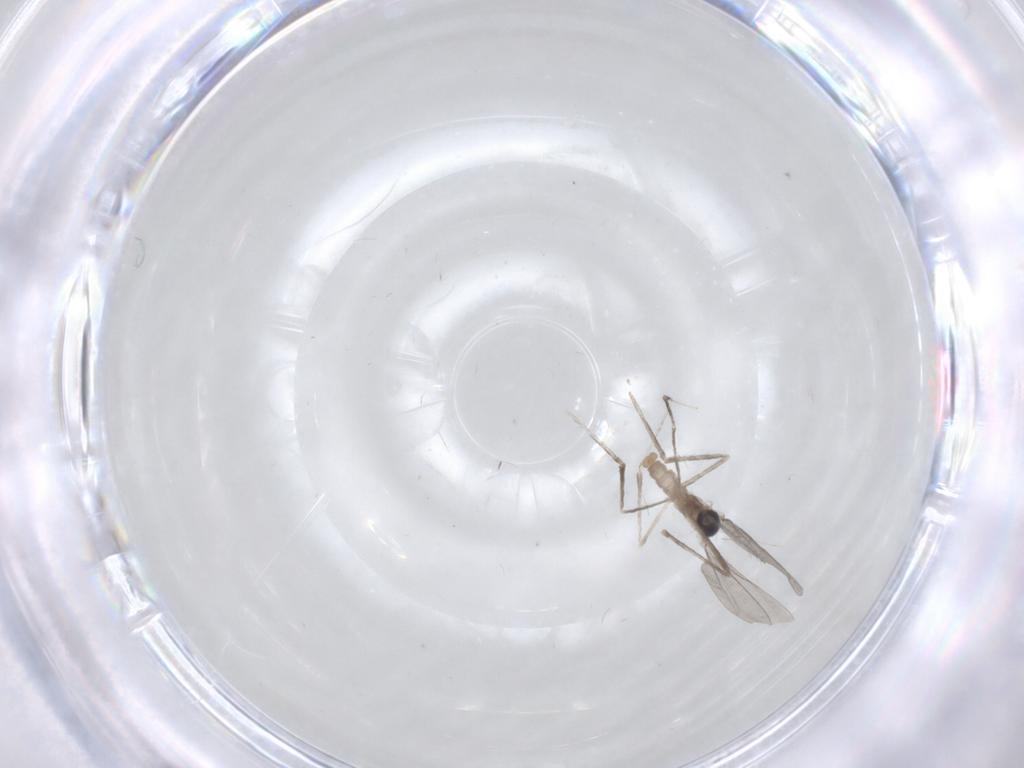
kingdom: Animalia
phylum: Arthropoda
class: Insecta
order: Diptera
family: Cecidomyiidae
